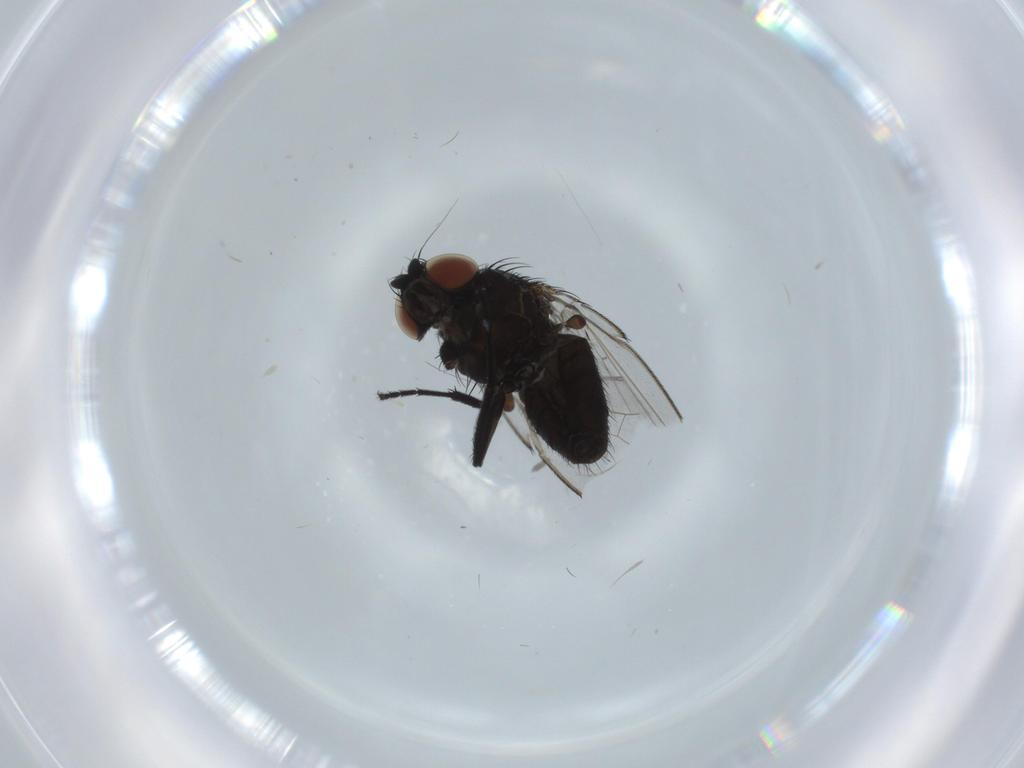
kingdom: Animalia
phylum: Arthropoda
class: Insecta
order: Diptera
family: Milichiidae
